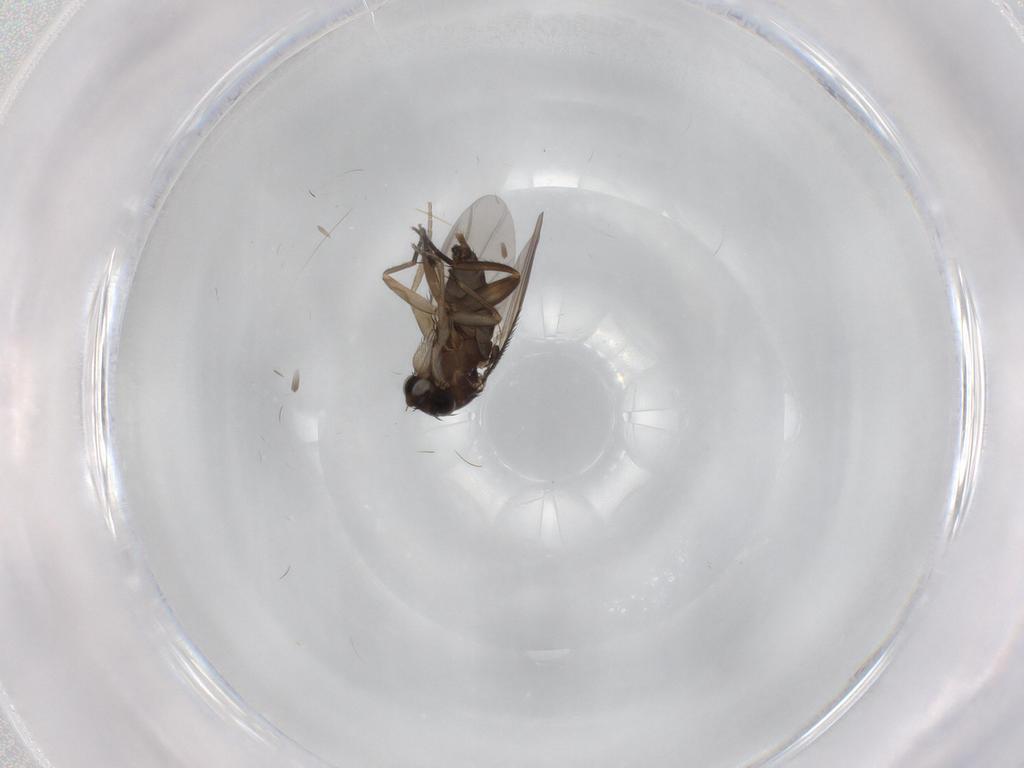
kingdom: Animalia
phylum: Arthropoda
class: Insecta
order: Diptera
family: Phoridae
